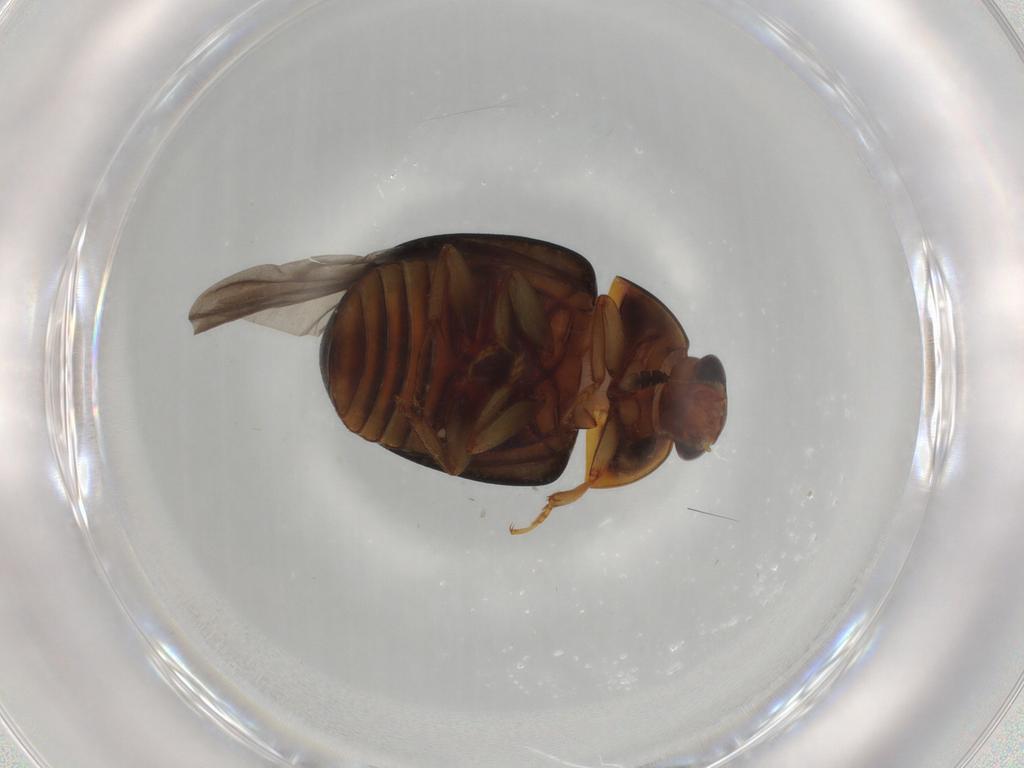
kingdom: Animalia
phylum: Arthropoda
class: Insecta
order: Coleoptera
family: Nitidulidae
